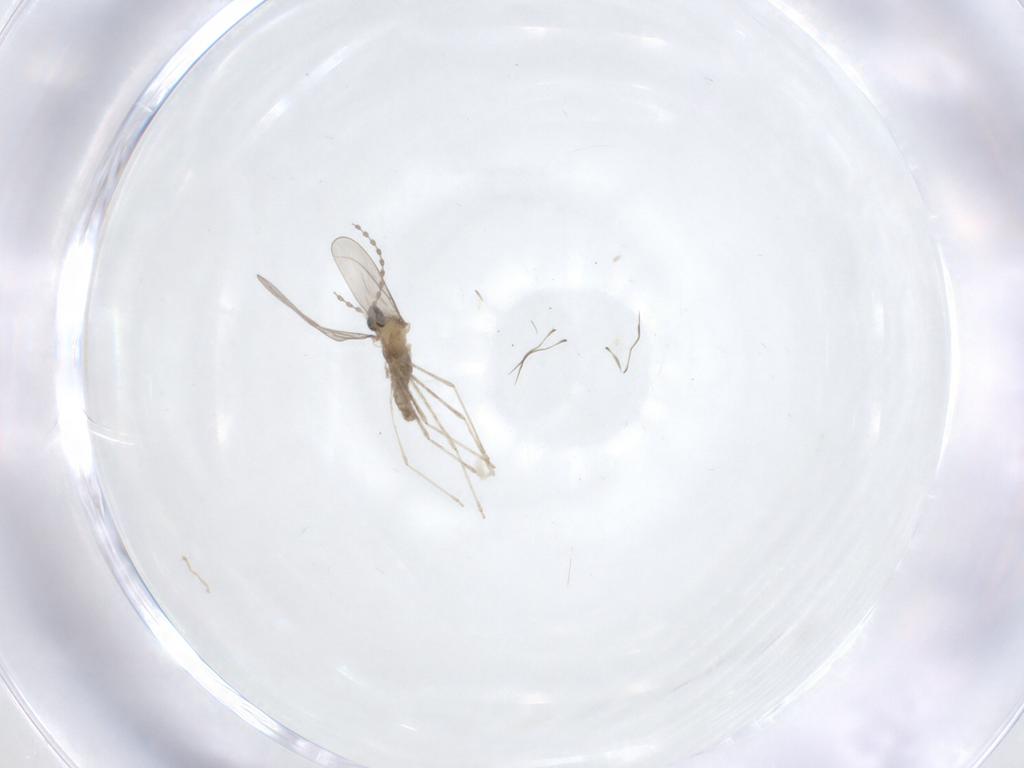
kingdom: Animalia
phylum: Arthropoda
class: Insecta
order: Diptera
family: Cecidomyiidae
